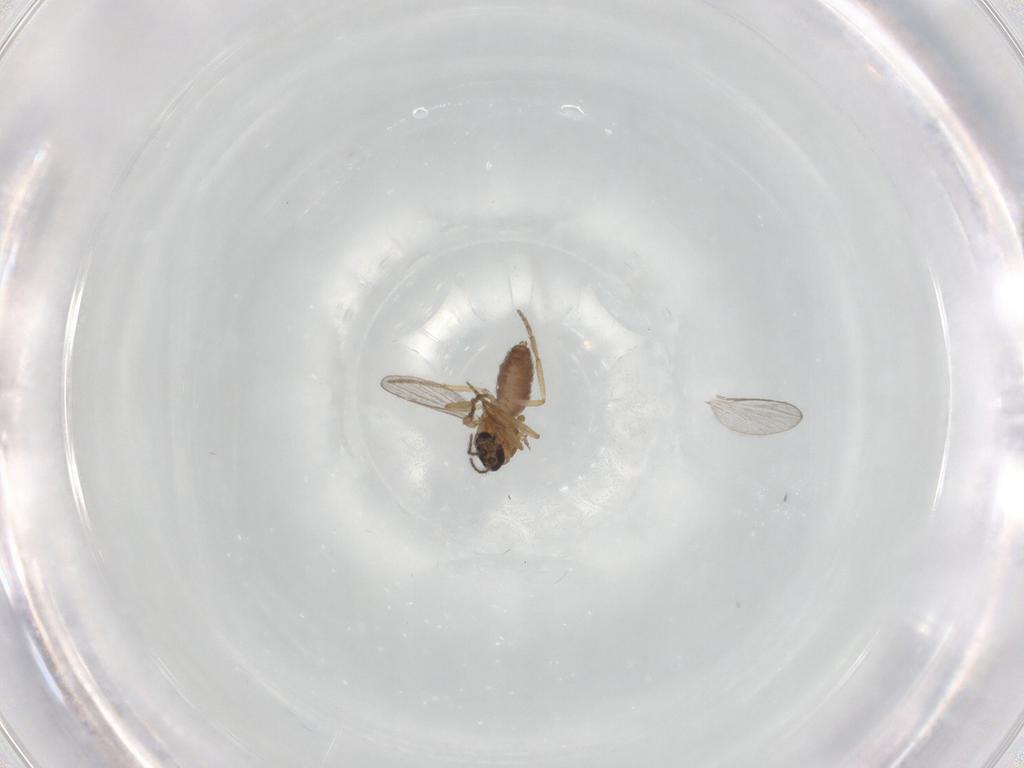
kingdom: Animalia
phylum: Arthropoda
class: Insecta
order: Diptera
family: Ceratopogonidae
